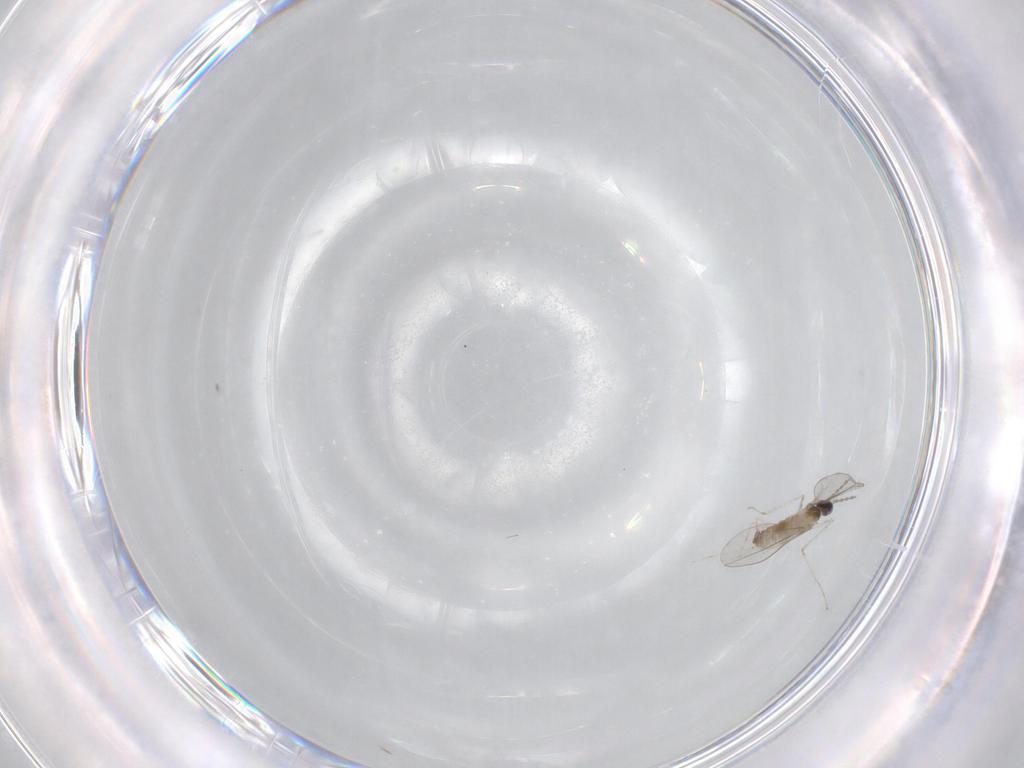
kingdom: Animalia
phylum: Arthropoda
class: Insecta
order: Diptera
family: Cecidomyiidae
